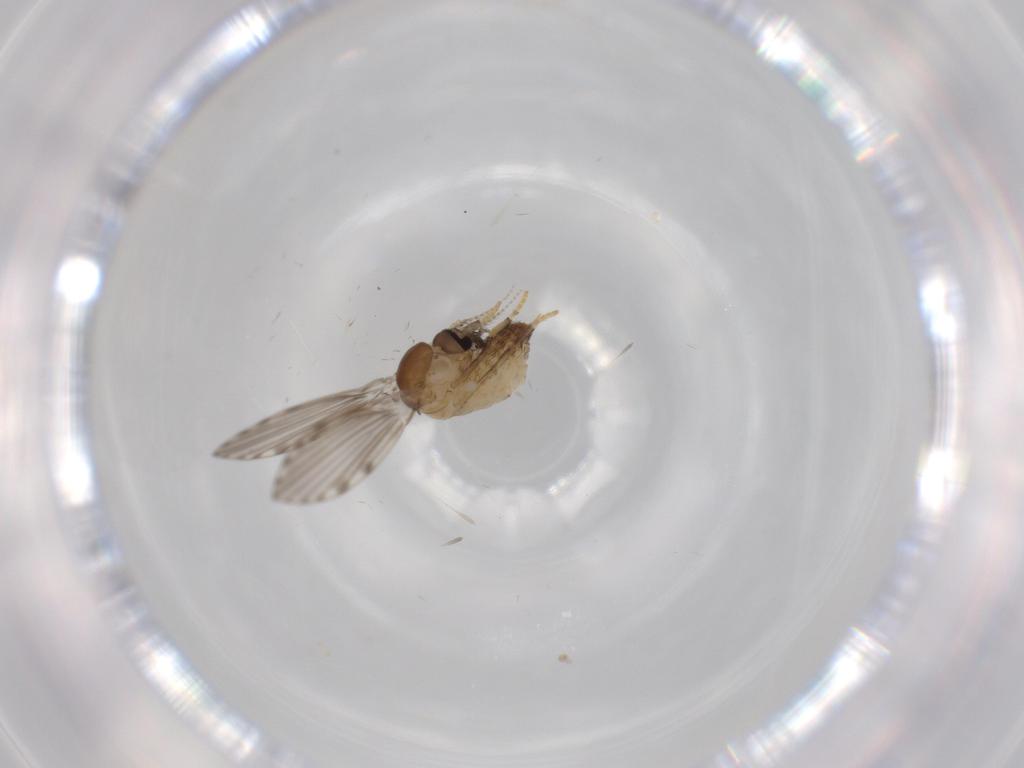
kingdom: Animalia
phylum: Arthropoda
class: Insecta
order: Diptera
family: Psychodidae
